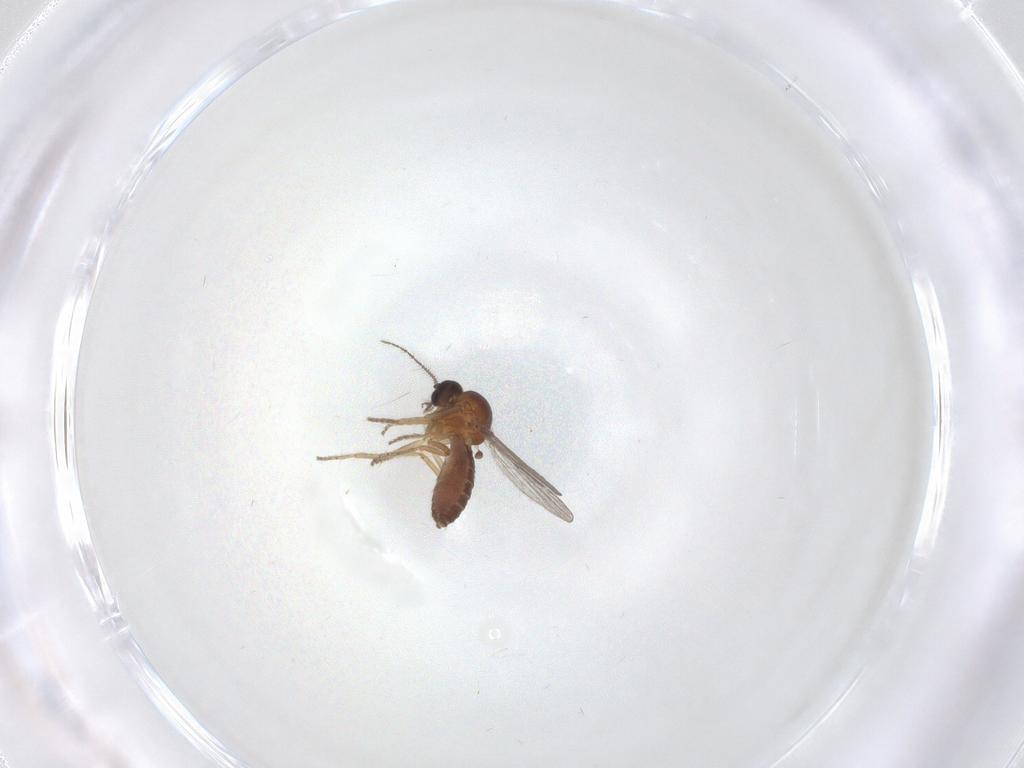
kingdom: Animalia
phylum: Arthropoda
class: Insecta
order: Diptera
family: Ceratopogonidae
